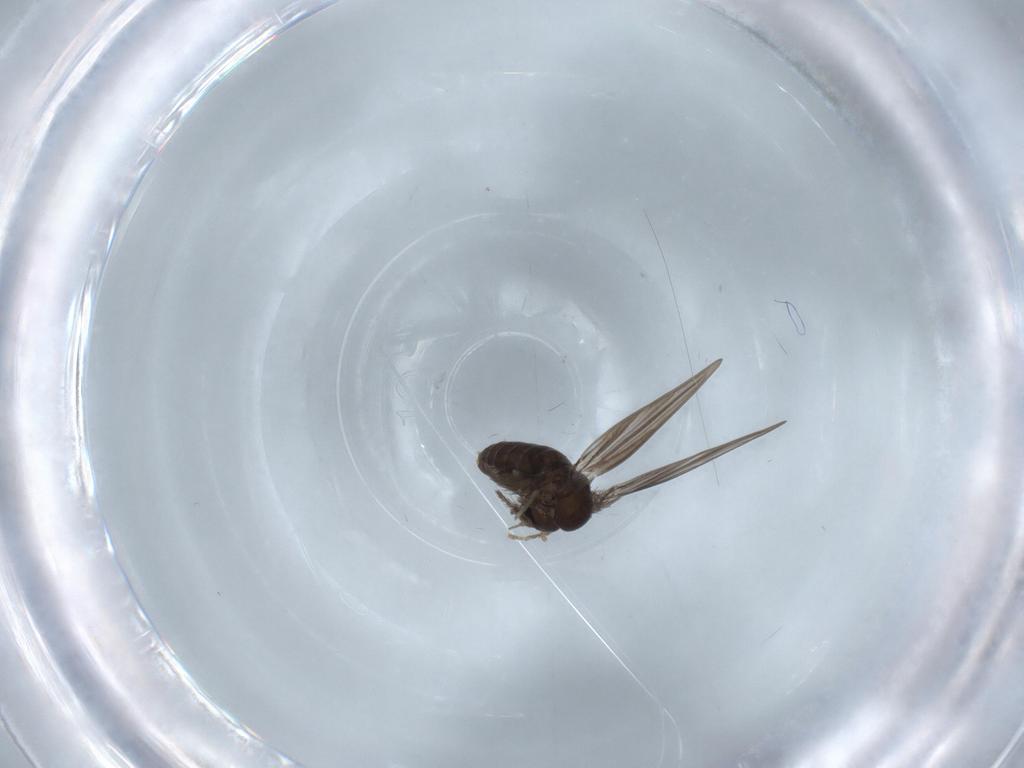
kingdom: Animalia
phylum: Arthropoda
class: Insecta
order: Diptera
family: Psychodidae
